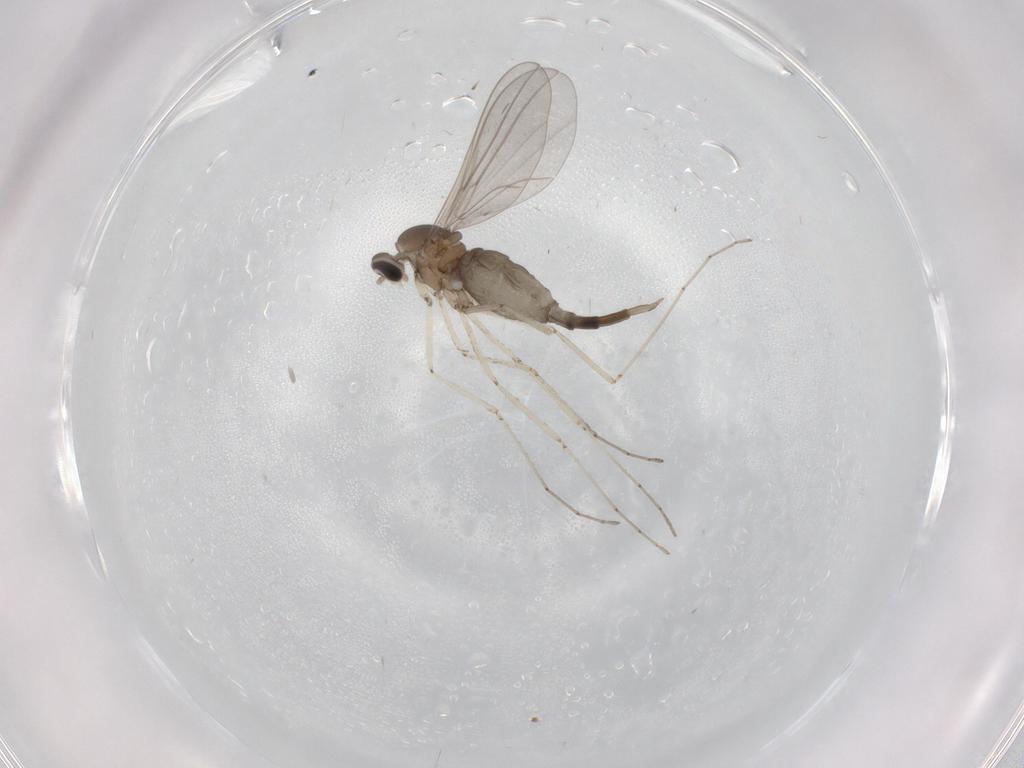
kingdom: Animalia
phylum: Arthropoda
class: Insecta
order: Diptera
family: Cecidomyiidae
